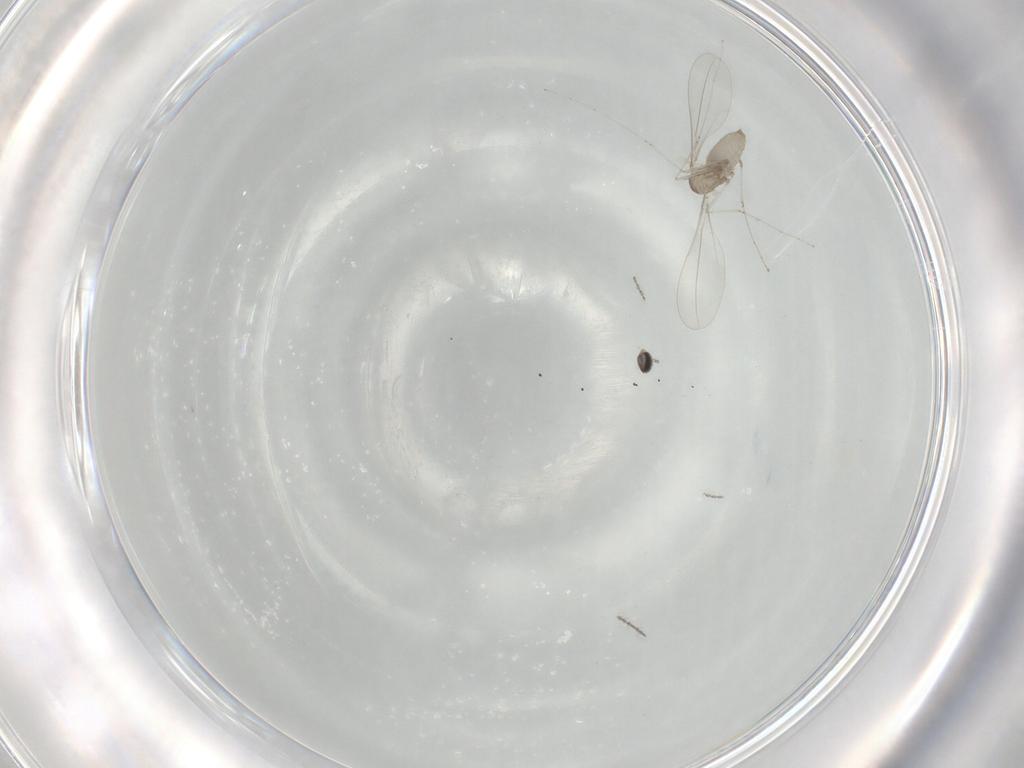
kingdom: Animalia
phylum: Arthropoda
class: Insecta
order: Diptera
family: Cecidomyiidae
